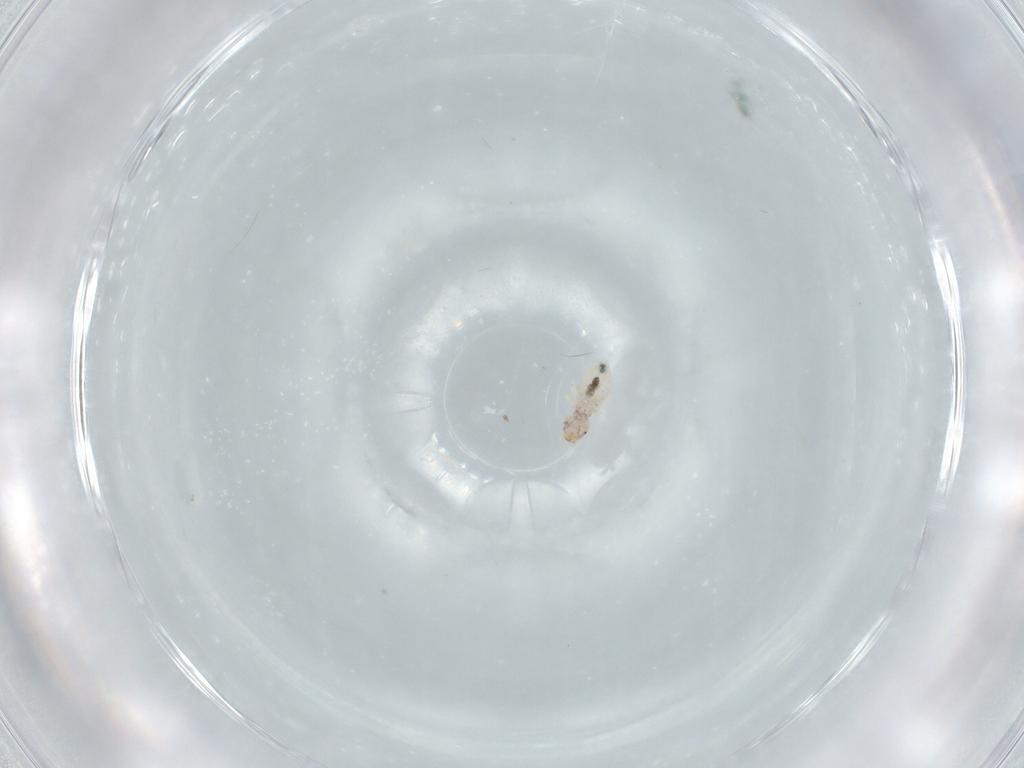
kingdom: Animalia
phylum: Arthropoda
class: Insecta
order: Psocodea
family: Liposcelididae
